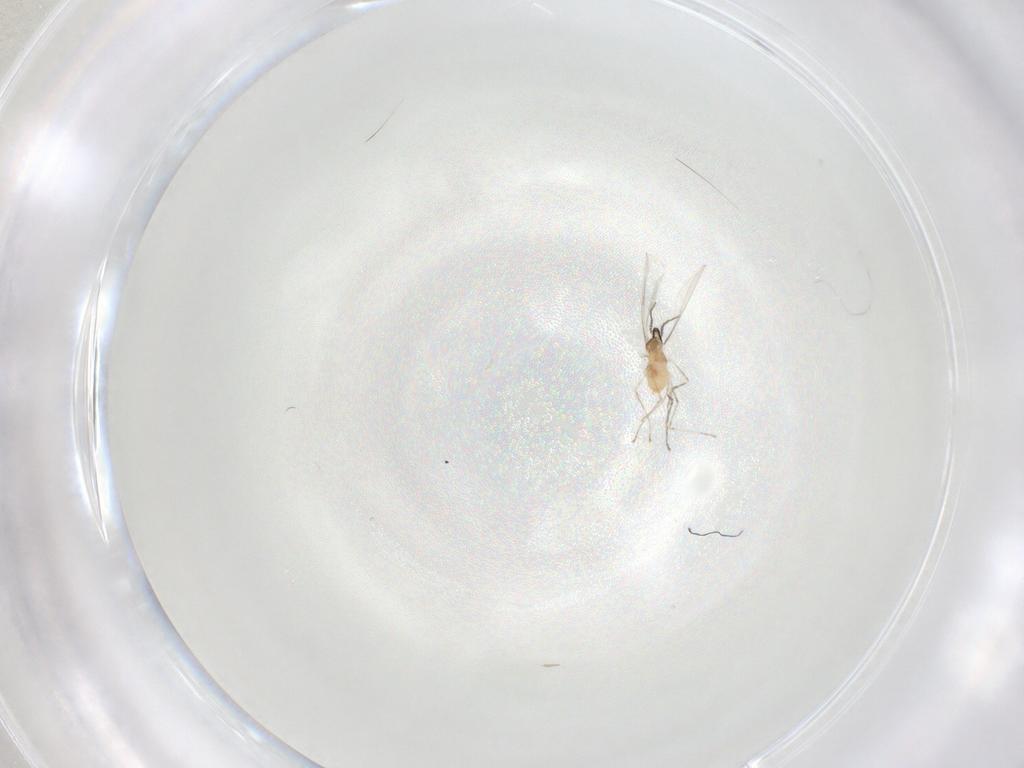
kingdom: Animalia
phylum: Arthropoda
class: Insecta
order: Diptera
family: Cecidomyiidae
